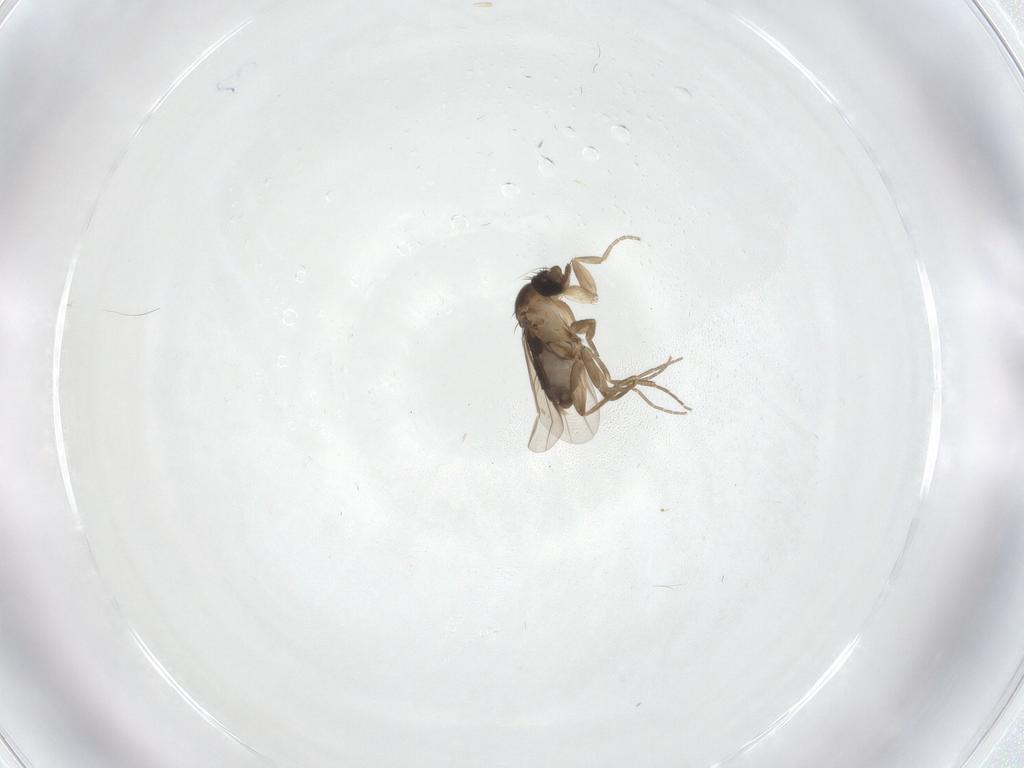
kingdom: Animalia
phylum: Arthropoda
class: Insecta
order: Diptera
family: Phoridae
